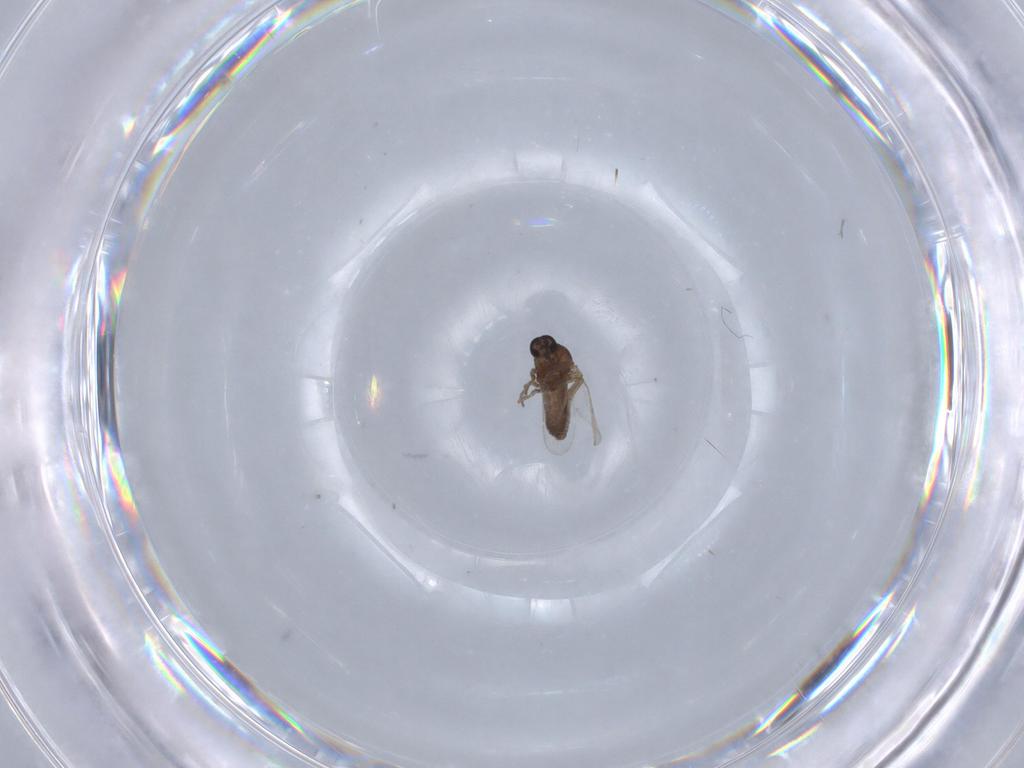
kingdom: Animalia
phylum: Arthropoda
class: Insecta
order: Diptera
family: Ceratopogonidae
